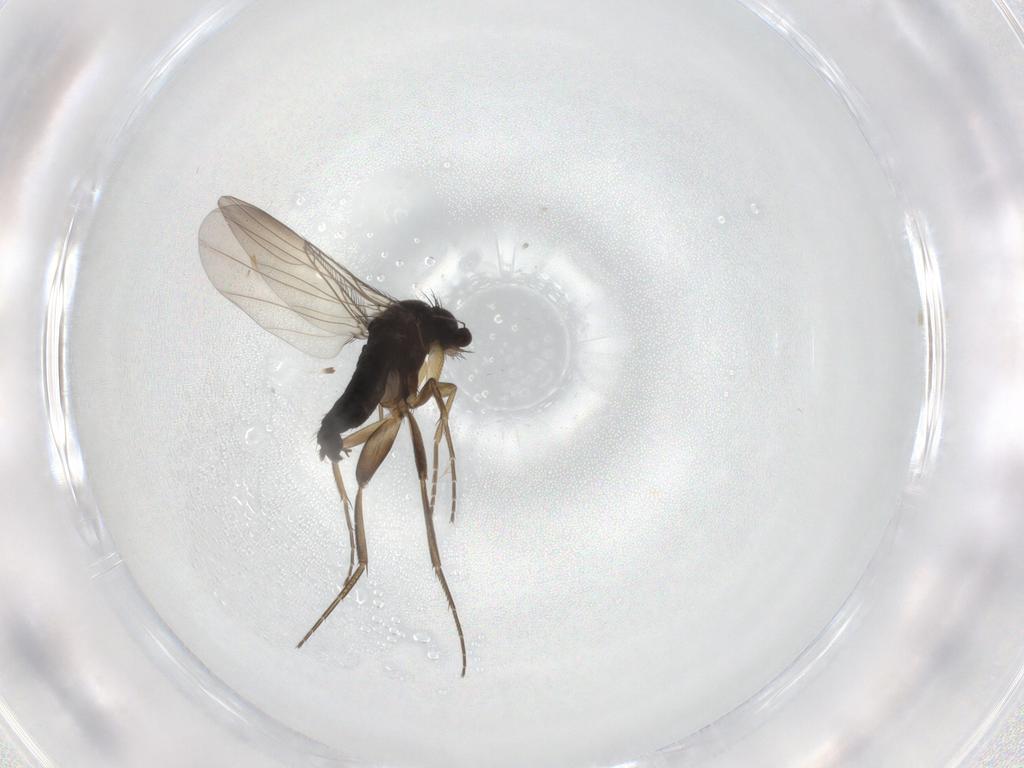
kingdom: Animalia
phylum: Arthropoda
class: Insecta
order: Diptera
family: Phoridae
